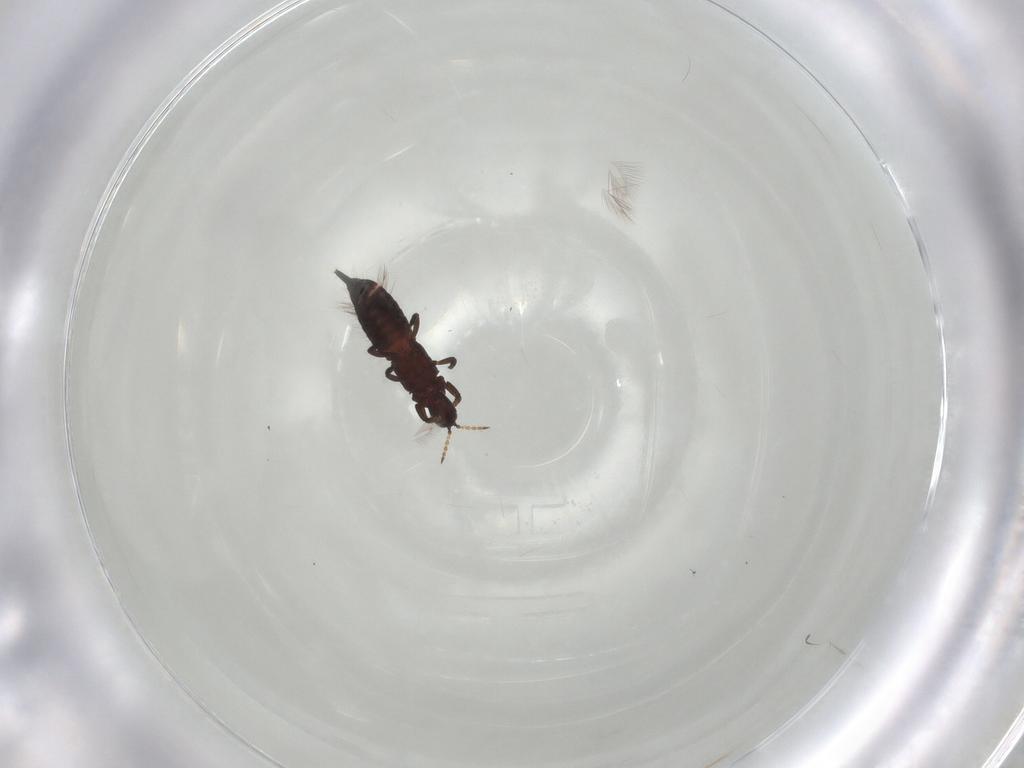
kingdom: Animalia
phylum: Arthropoda
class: Insecta
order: Thysanoptera
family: Phlaeothripidae
